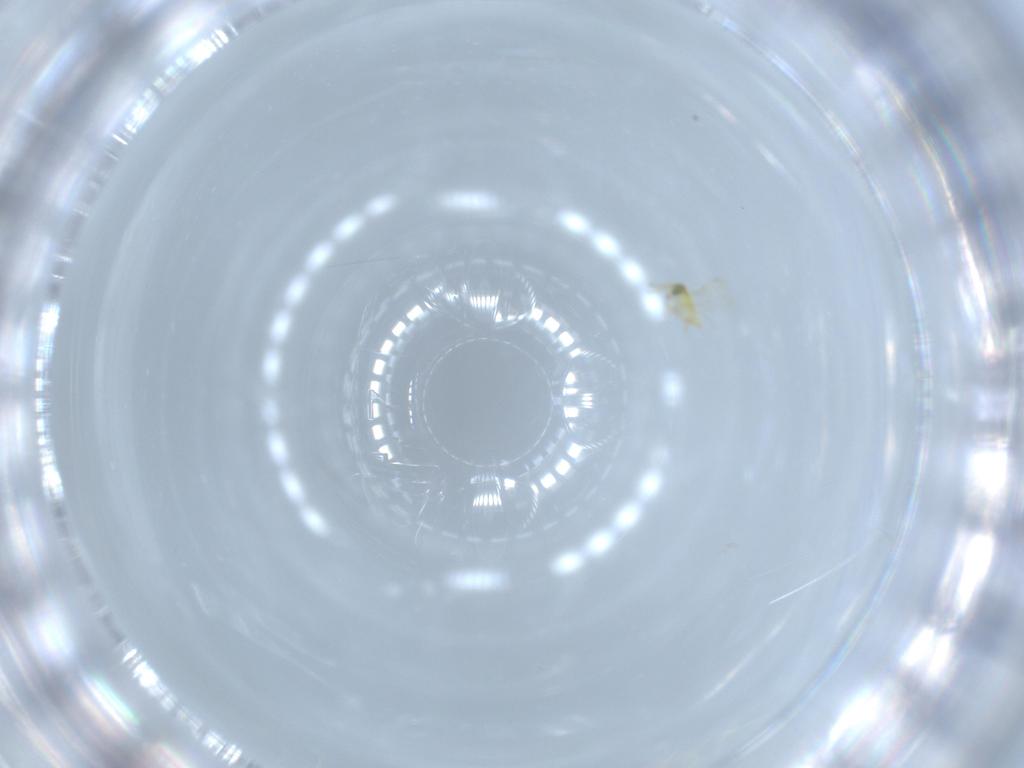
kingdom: Animalia
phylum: Arthropoda
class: Insecta
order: Hymenoptera
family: Aphelinidae
